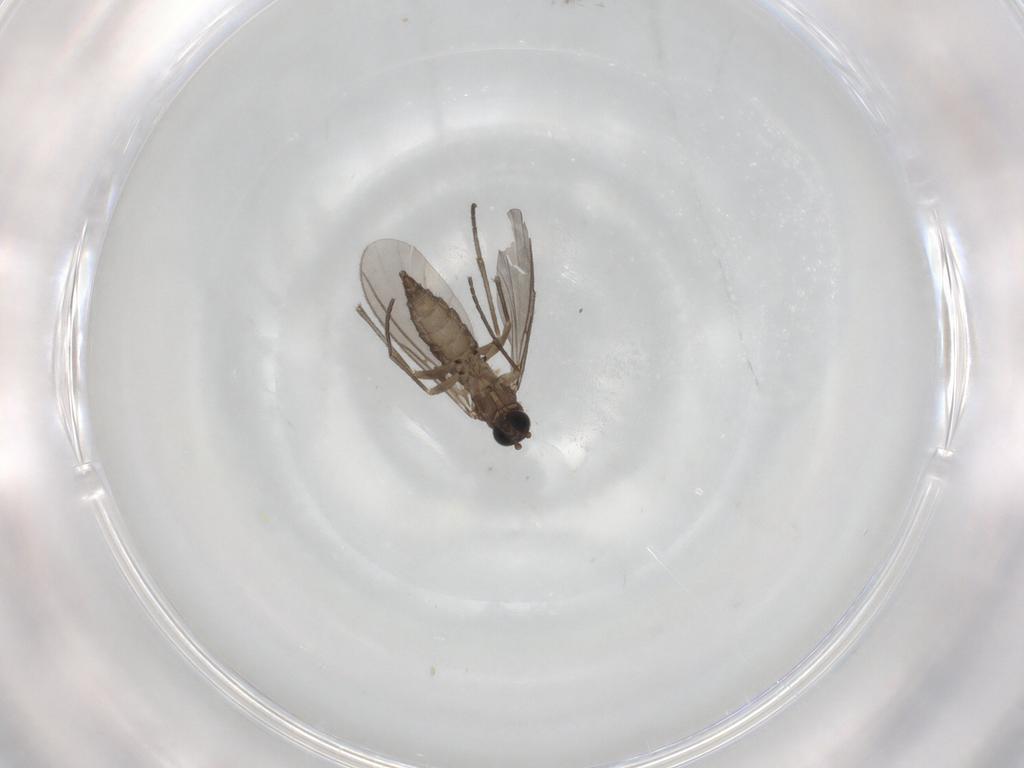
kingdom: Animalia
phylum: Arthropoda
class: Insecta
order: Diptera
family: Sciaridae
